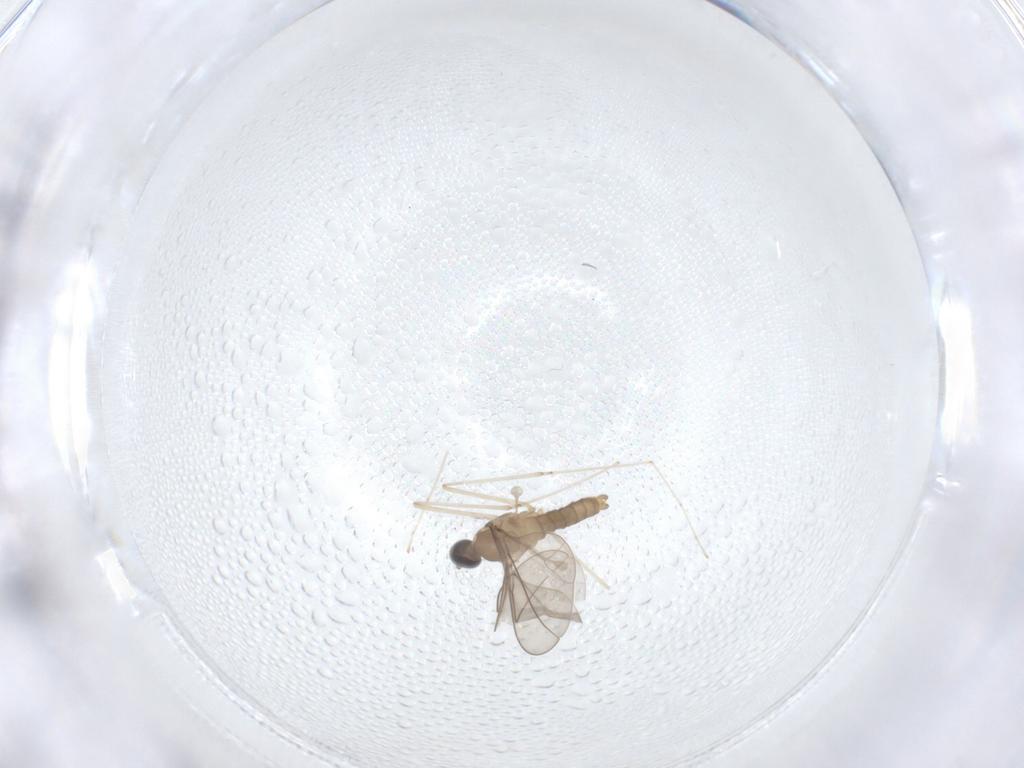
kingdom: Animalia
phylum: Arthropoda
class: Insecta
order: Diptera
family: Cecidomyiidae
